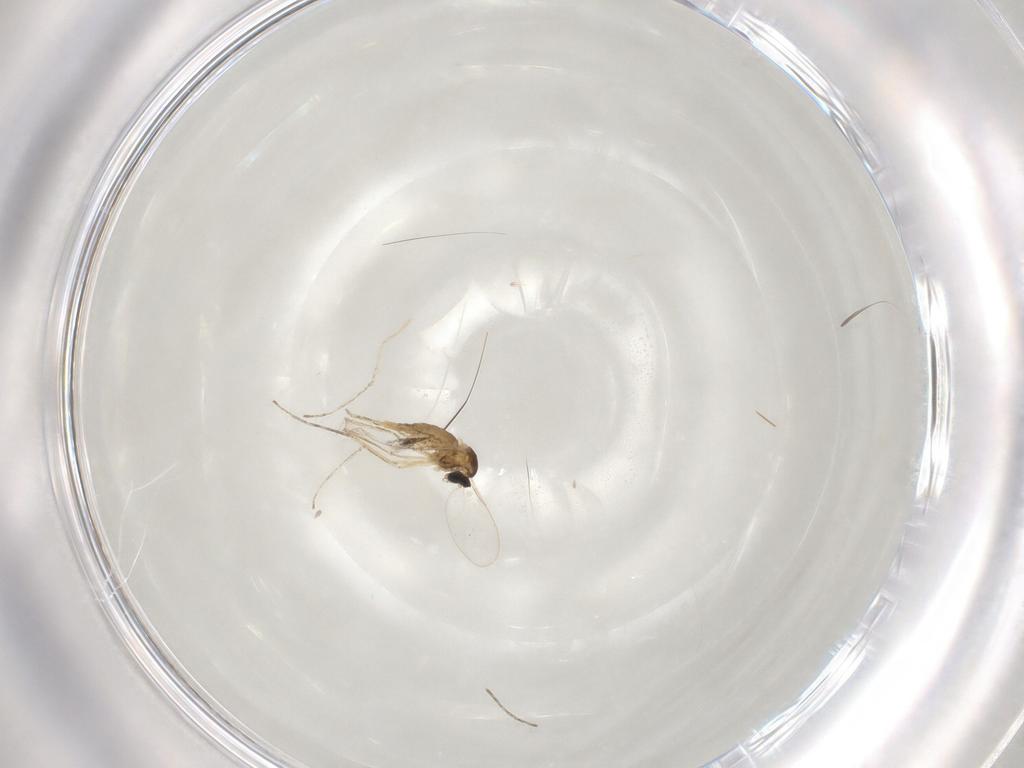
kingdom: Animalia
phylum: Arthropoda
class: Insecta
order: Diptera
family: Cecidomyiidae
